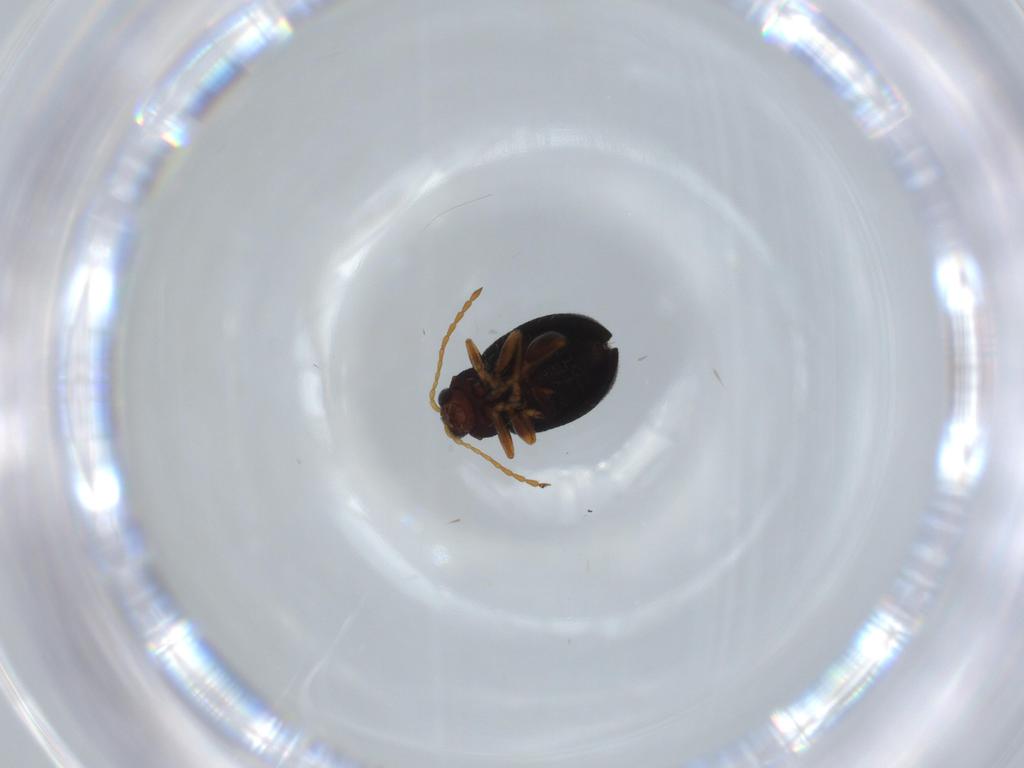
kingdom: Animalia
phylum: Arthropoda
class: Insecta
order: Coleoptera
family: Chrysomelidae
